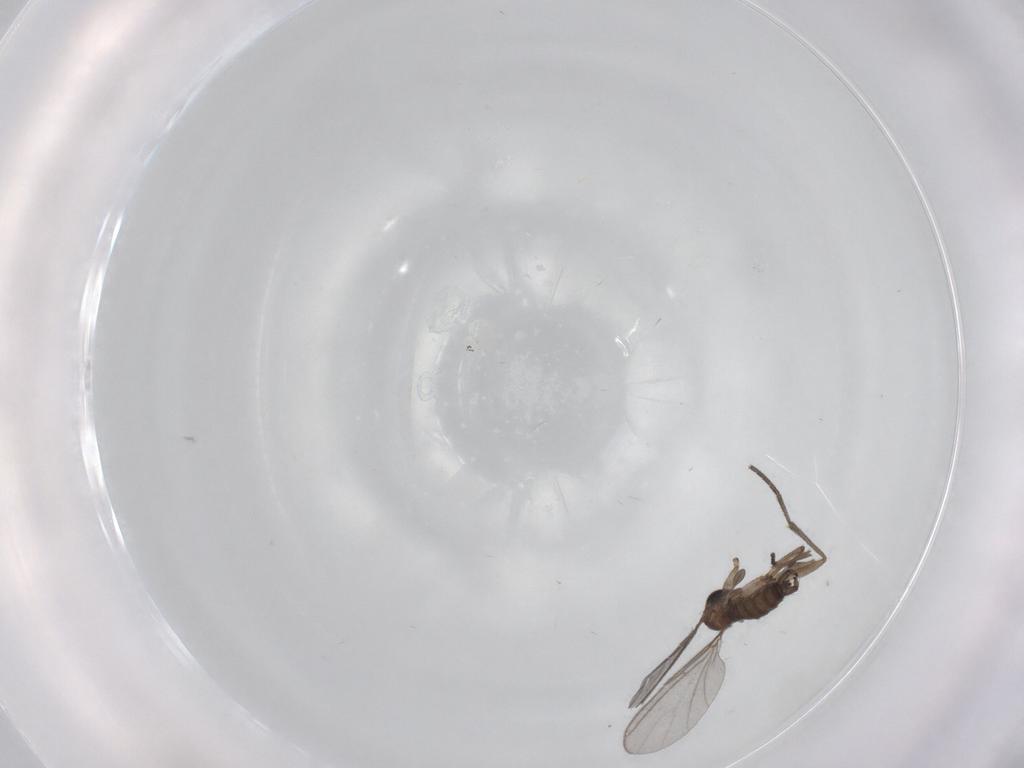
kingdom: Animalia
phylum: Arthropoda
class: Insecta
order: Diptera
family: Sciaridae
